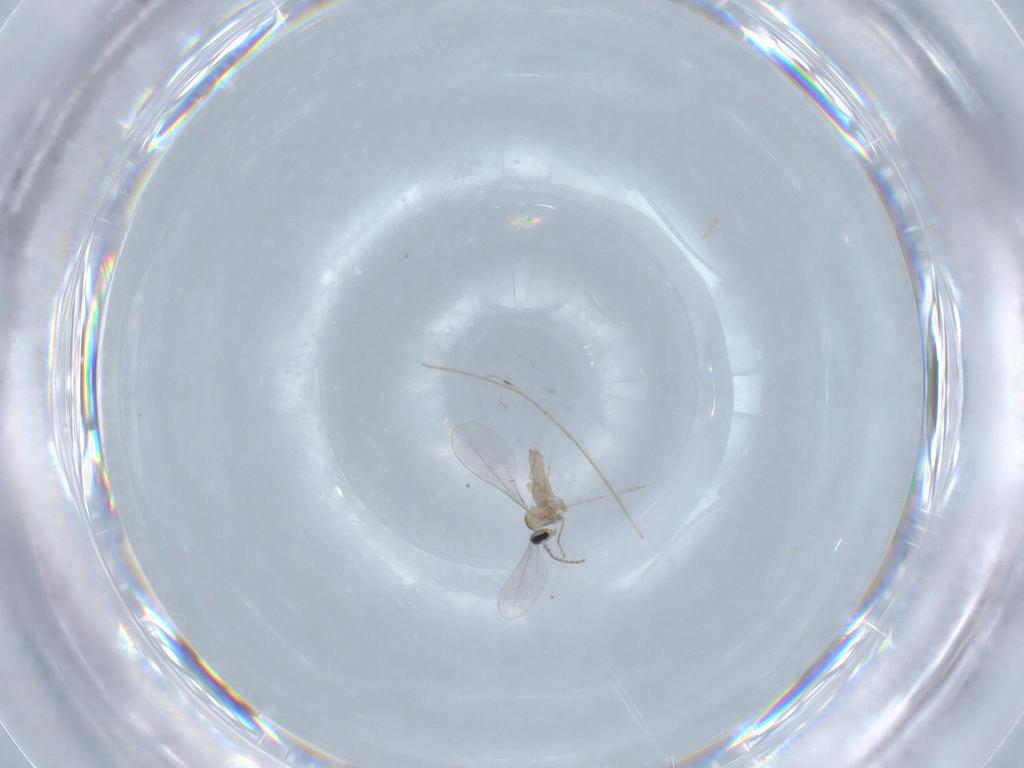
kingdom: Animalia
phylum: Arthropoda
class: Insecta
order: Diptera
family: Chironomidae
